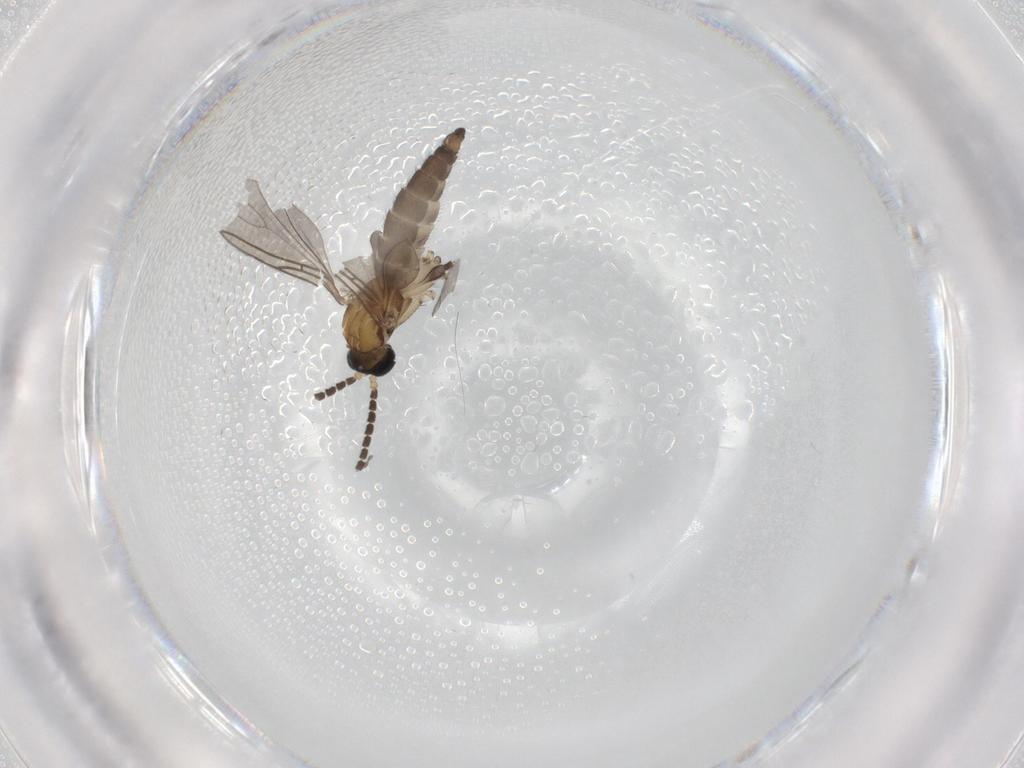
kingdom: Animalia
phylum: Arthropoda
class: Insecta
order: Diptera
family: Sciaridae
